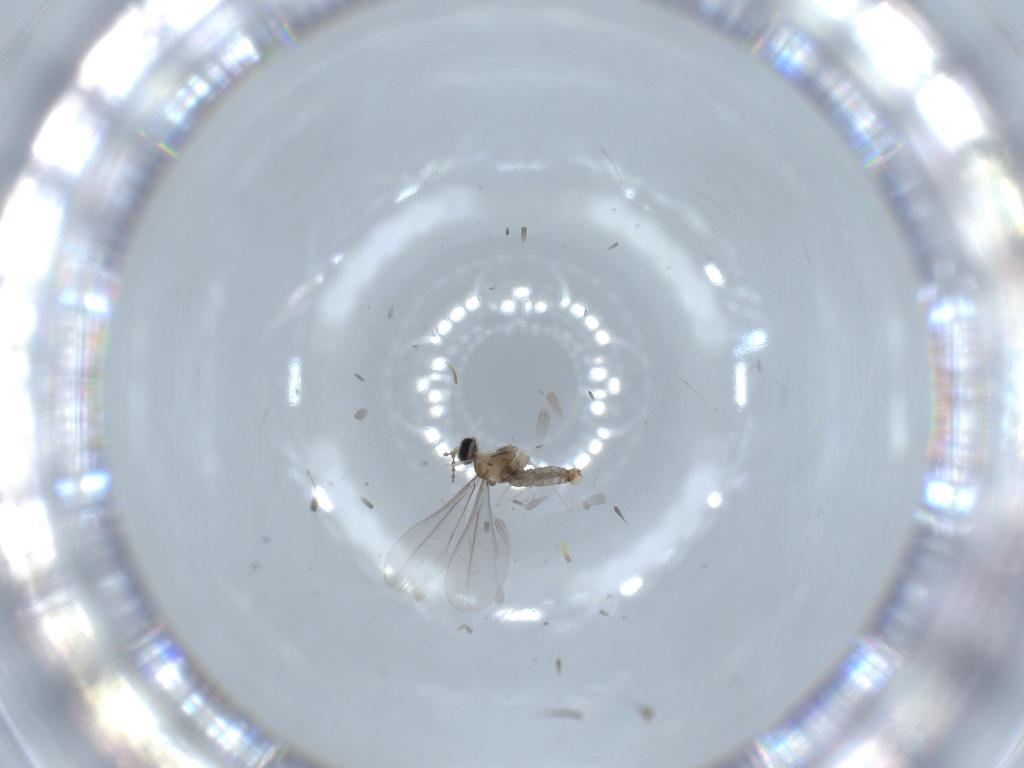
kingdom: Animalia
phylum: Arthropoda
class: Insecta
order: Diptera
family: Cecidomyiidae
